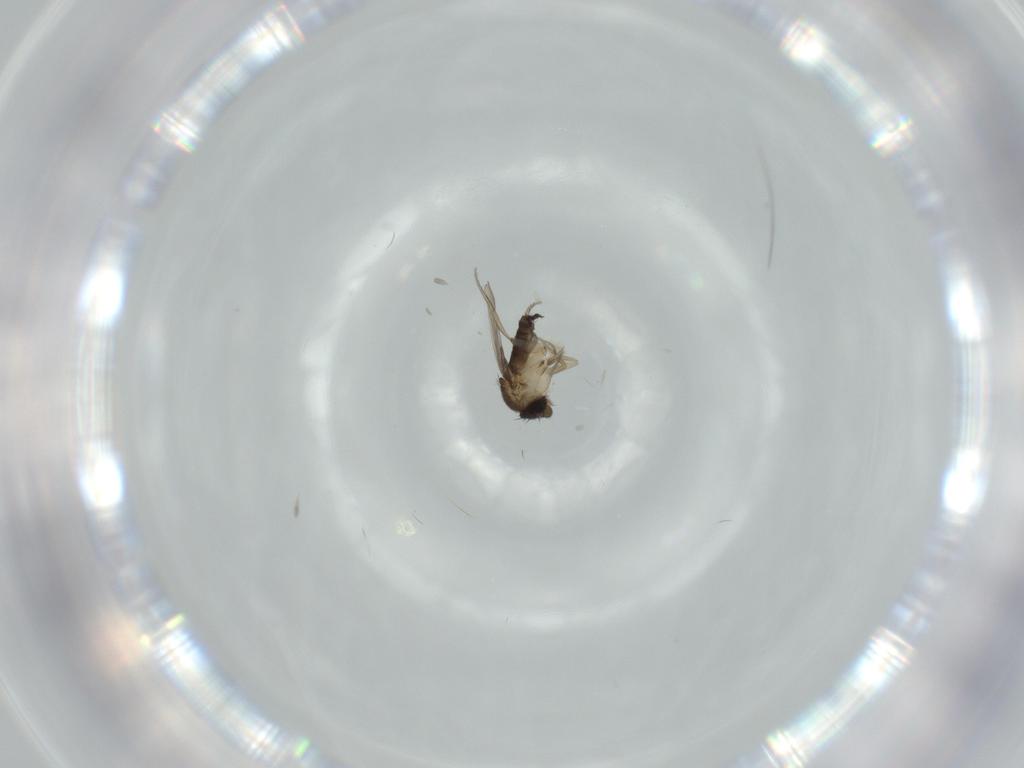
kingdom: Animalia
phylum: Arthropoda
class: Insecta
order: Diptera
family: Cecidomyiidae
